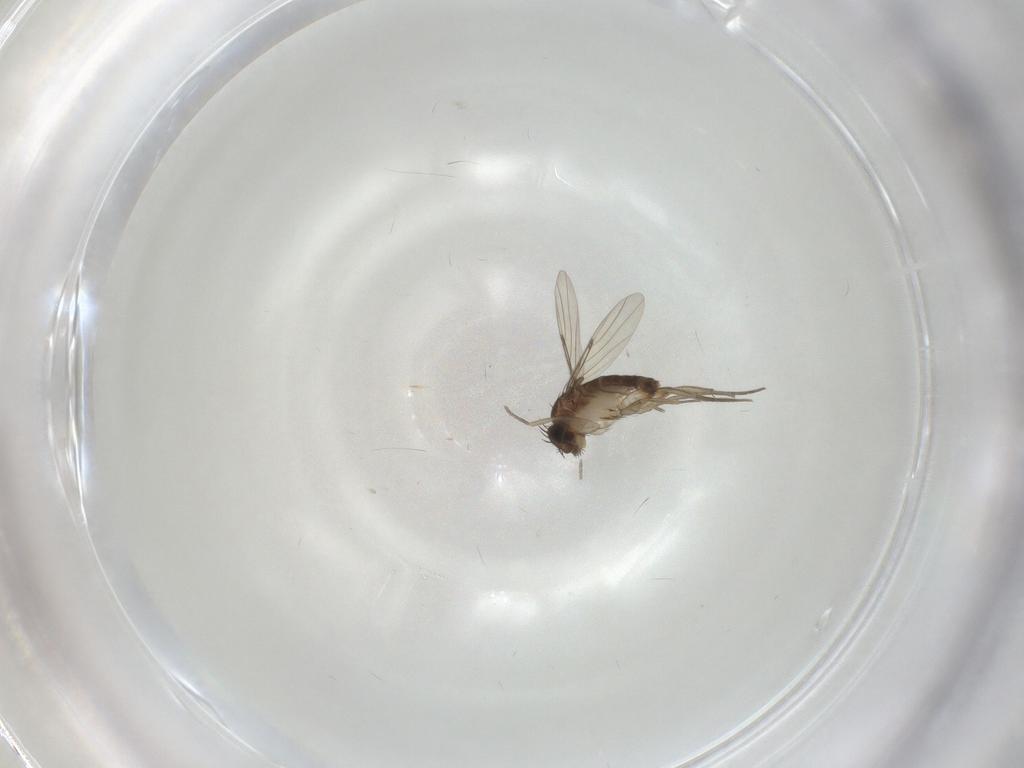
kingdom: Animalia
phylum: Arthropoda
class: Insecta
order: Diptera
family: Phoridae
